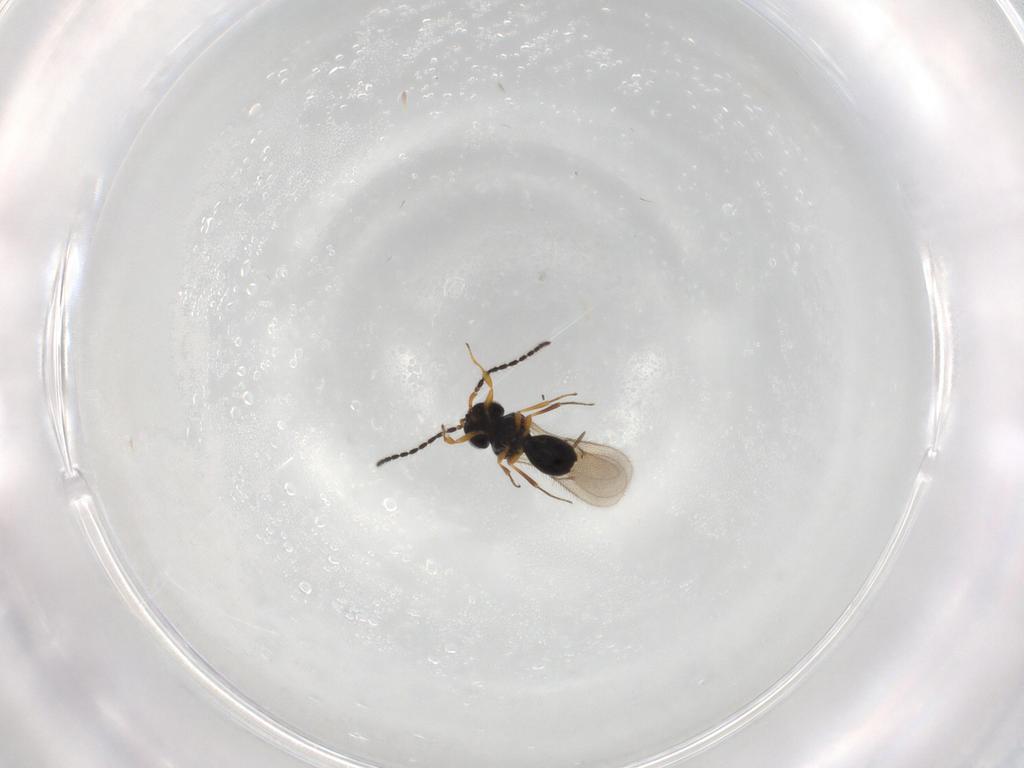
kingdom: Animalia
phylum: Arthropoda
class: Insecta
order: Hymenoptera
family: Scelionidae
